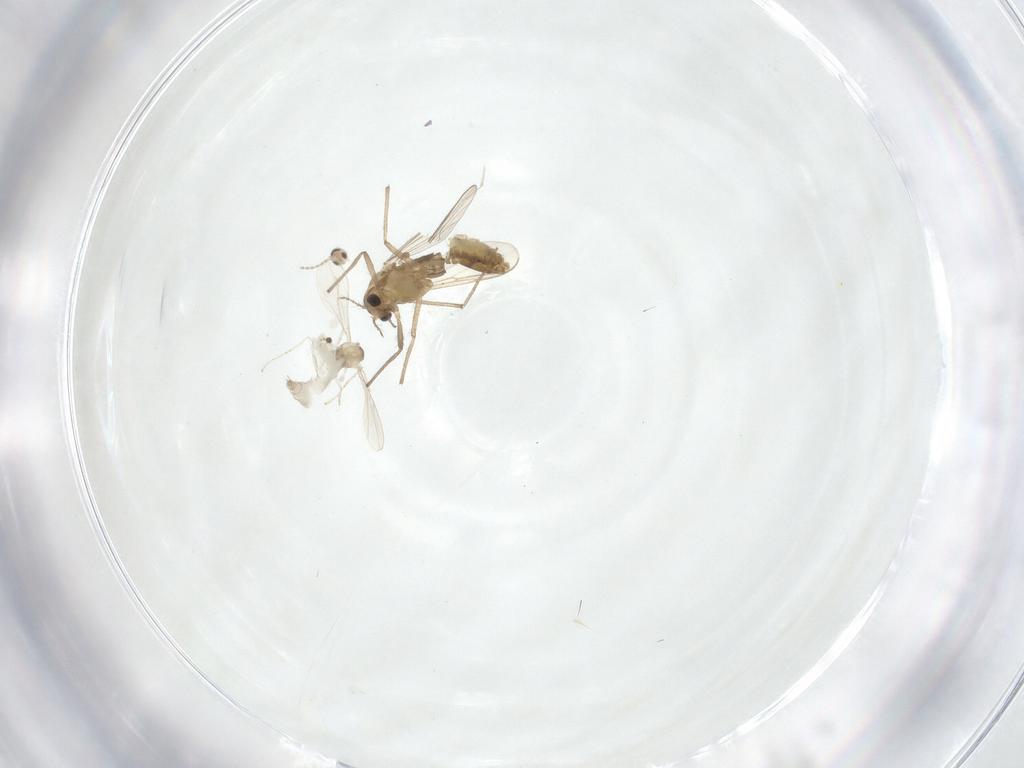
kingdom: Animalia
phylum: Arthropoda
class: Insecta
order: Diptera
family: Chironomidae
